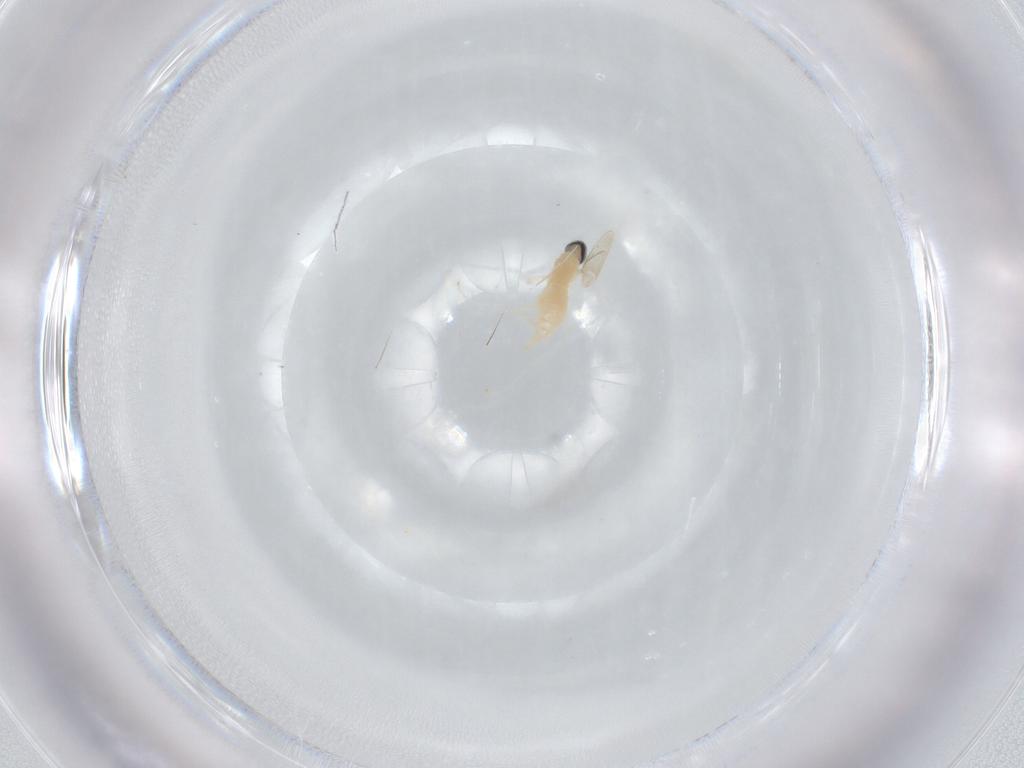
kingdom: Animalia
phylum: Arthropoda
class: Insecta
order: Diptera
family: Cecidomyiidae
